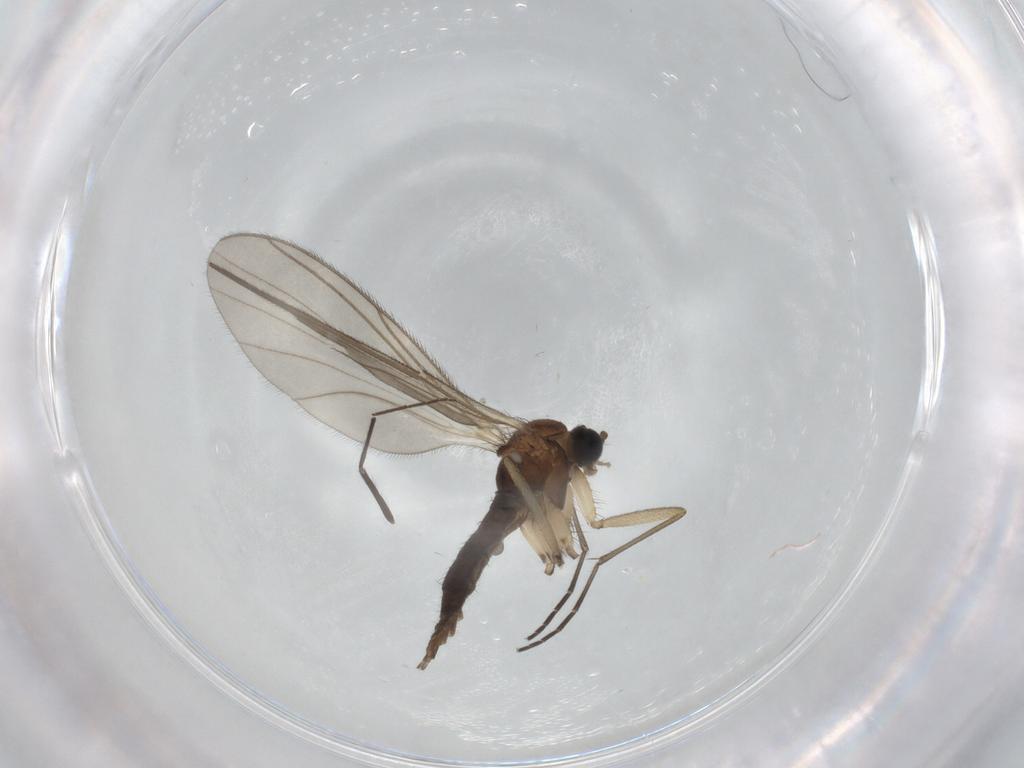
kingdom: Animalia
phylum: Arthropoda
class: Insecta
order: Diptera
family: Sciaridae
